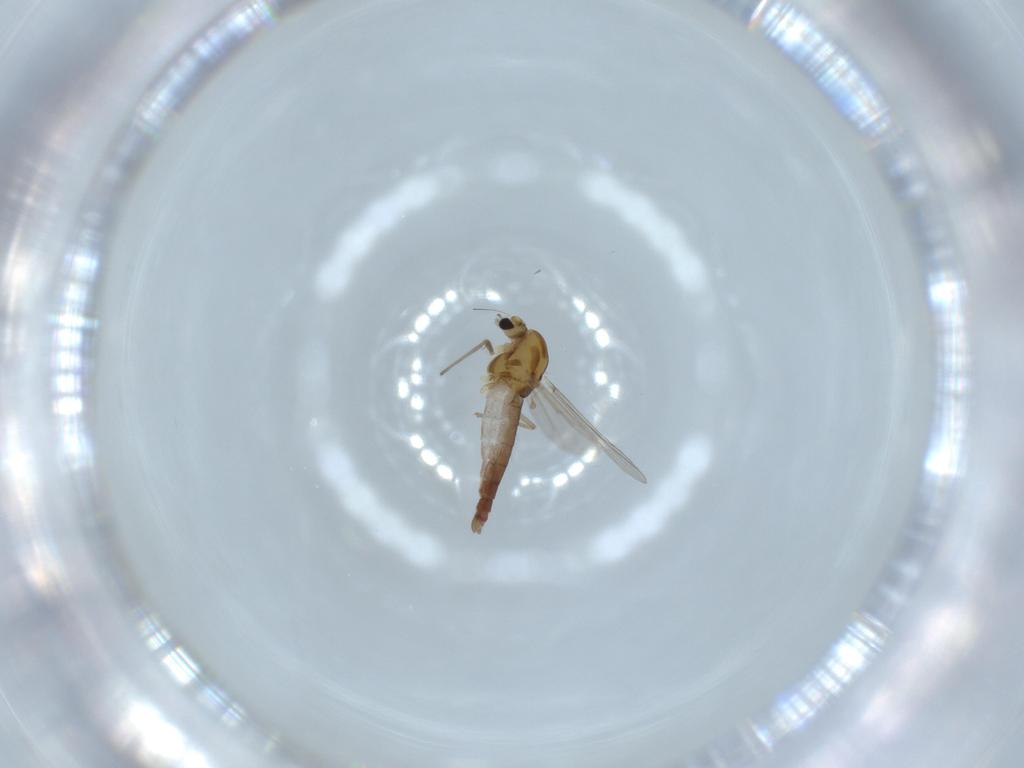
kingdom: Animalia
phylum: Arthropoda
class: Insecta
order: Diptera
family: Chironomidae
